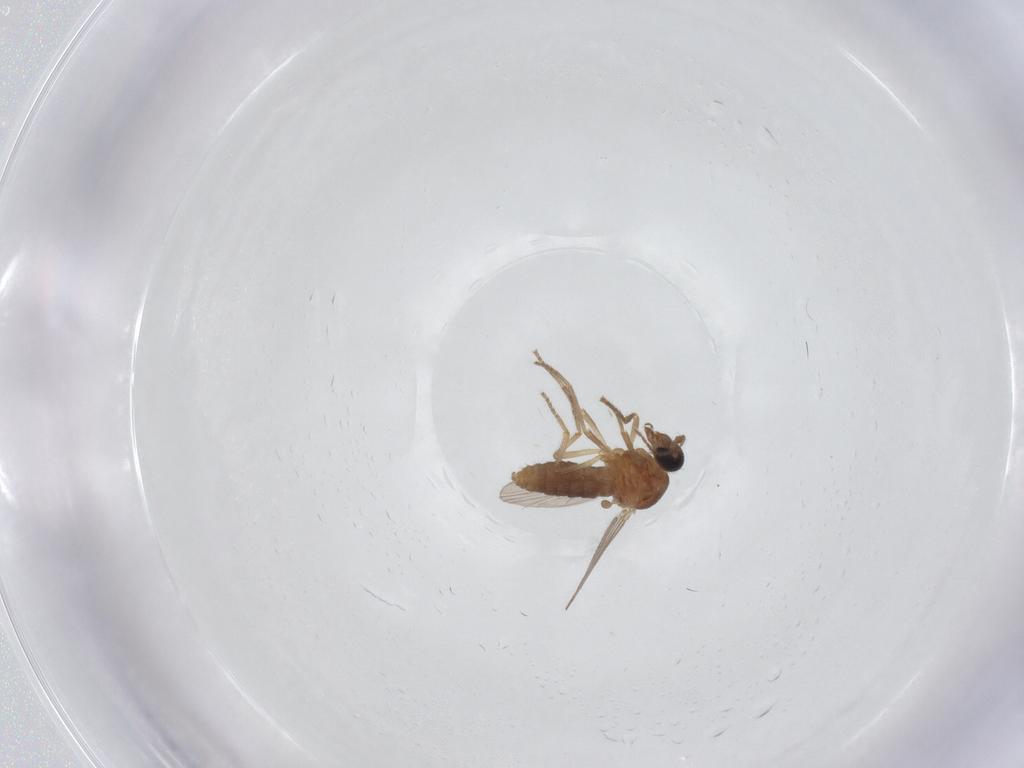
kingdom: Animalia
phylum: Arthropoda
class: Insecta
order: Diptera
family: Ceratopogonidae
